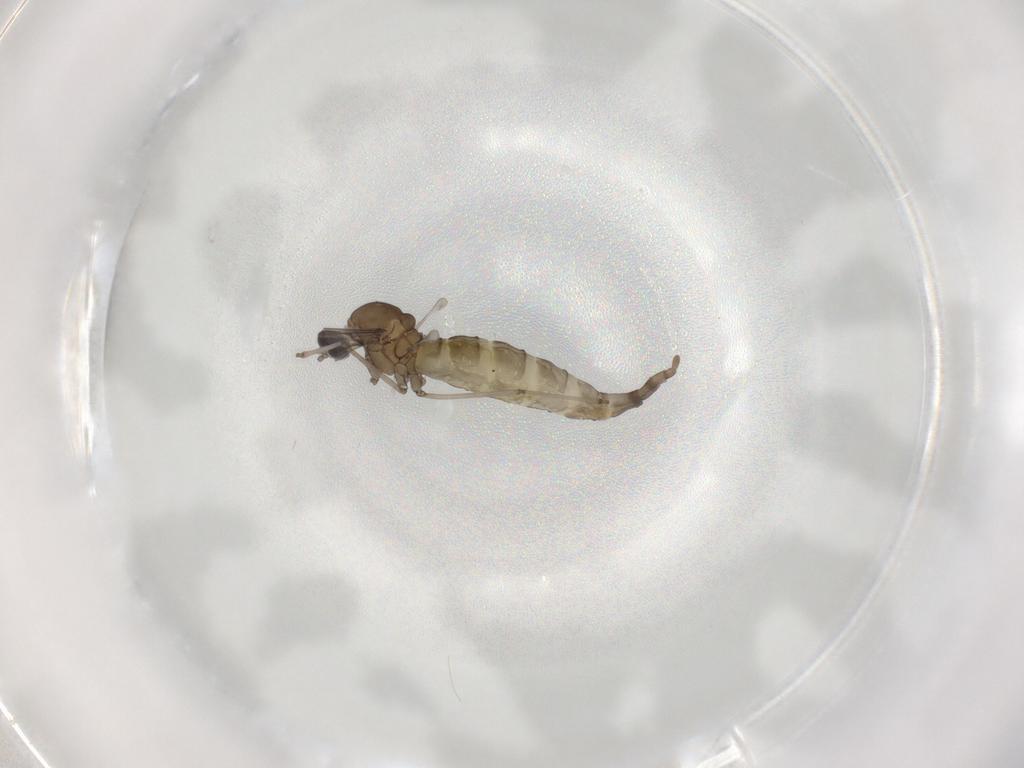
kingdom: Animalia
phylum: Arthropoda
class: Insecta
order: Diptera
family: Cecidomyiidae
